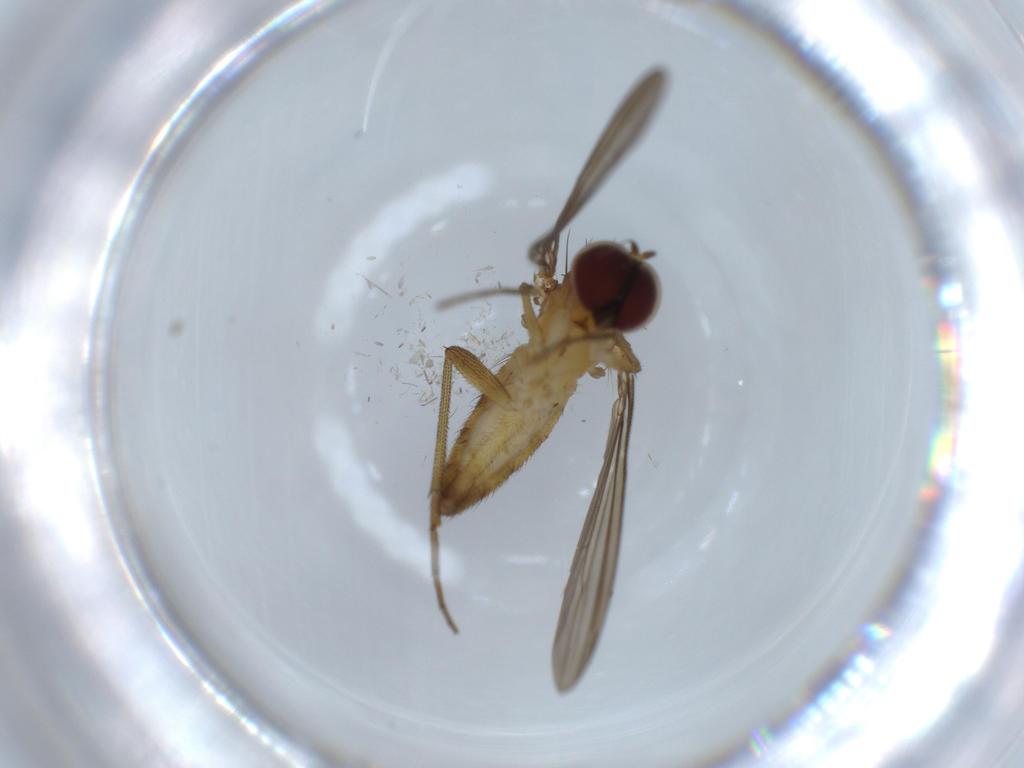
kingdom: Animalia
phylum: Arthropoda
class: Insecta
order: Diptera
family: Dolichopodidae
